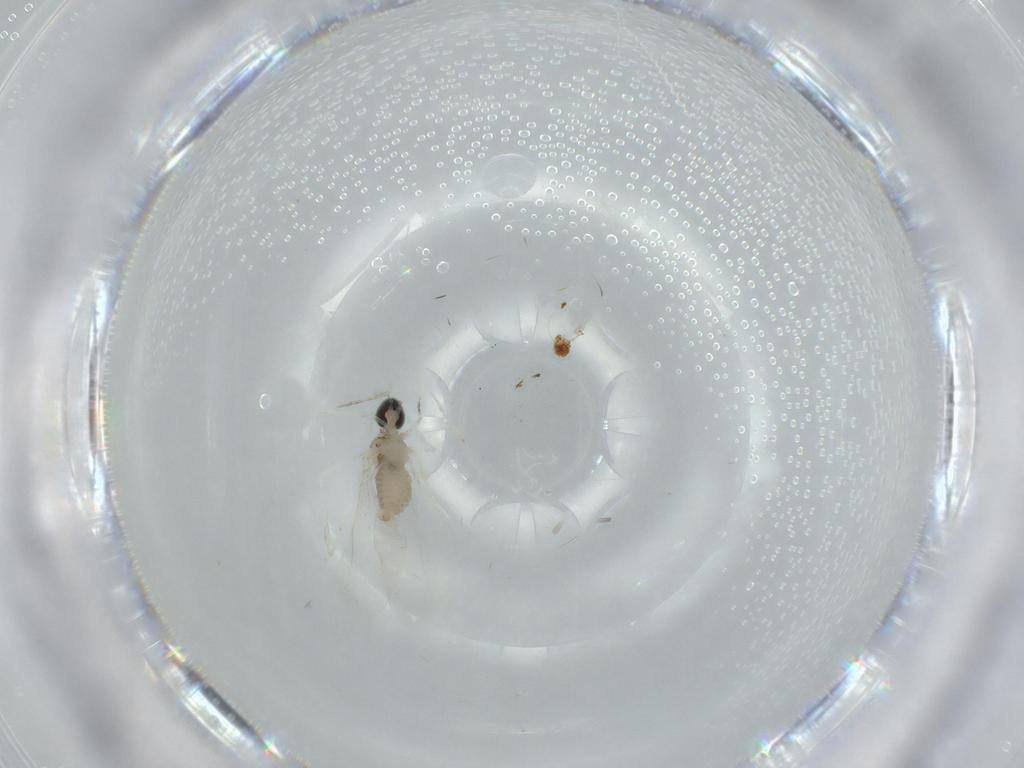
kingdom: Animalia
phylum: Arthropoda
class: Insecta
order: Diptera
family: Cecidomyiidae
